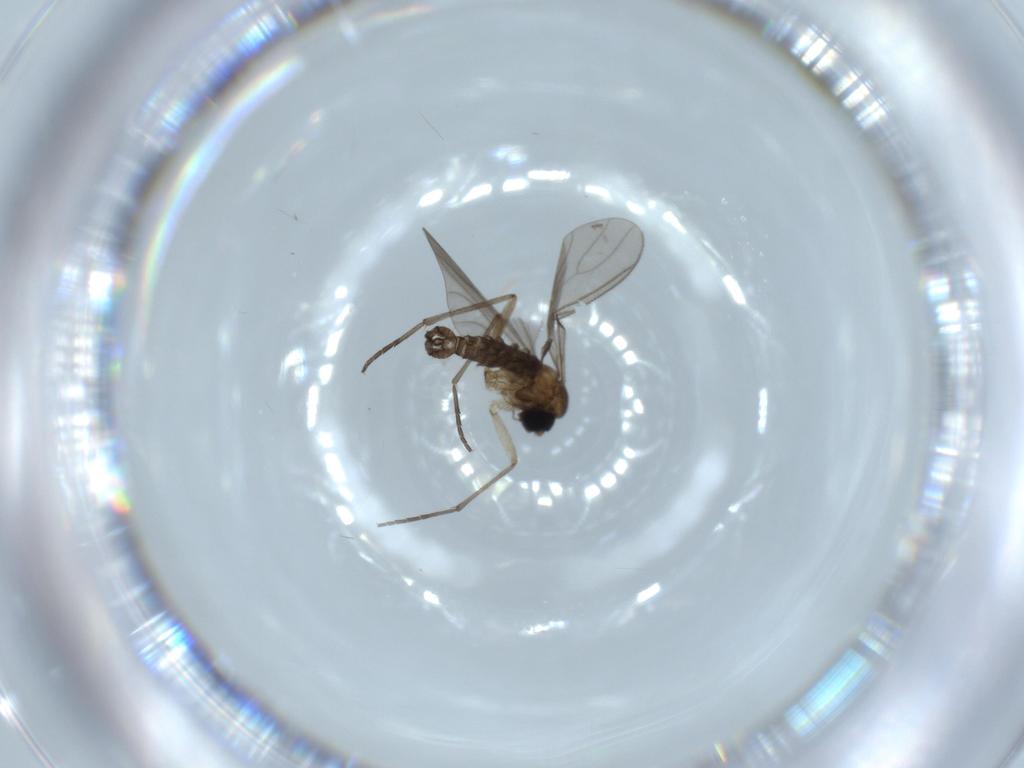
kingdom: Animalia
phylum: Arthropoda
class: Insecta
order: Diptera
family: Sciaridae
